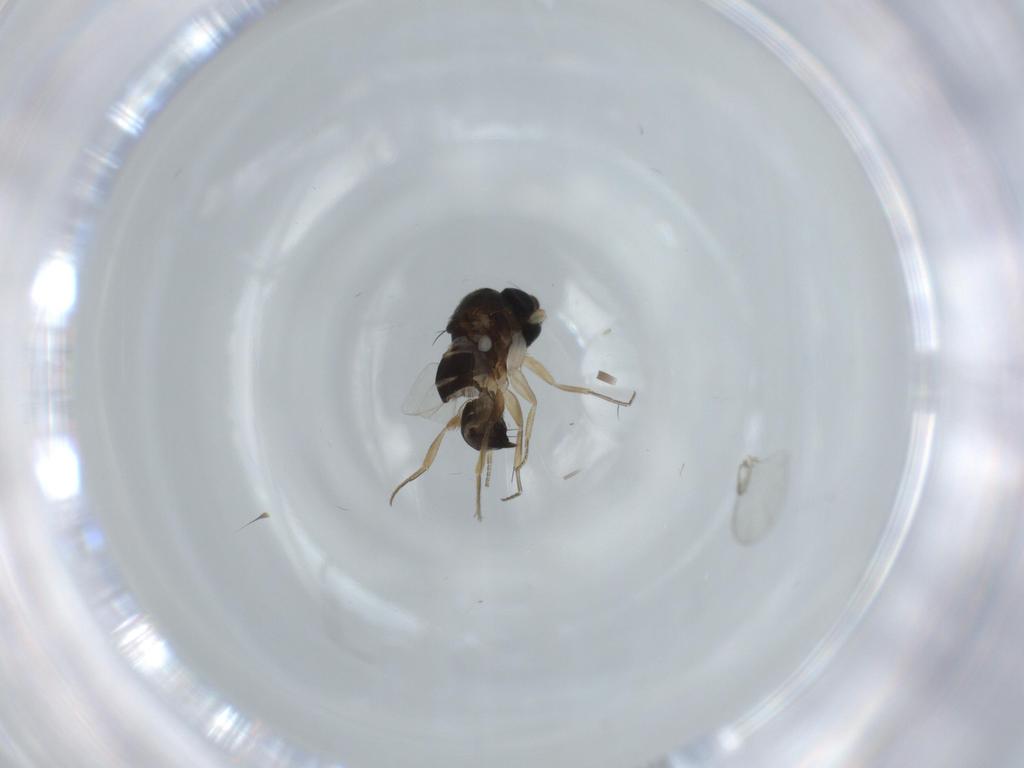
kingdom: Animalia
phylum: Arthropoda
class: Insecta
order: Diptera
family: Phoridae
